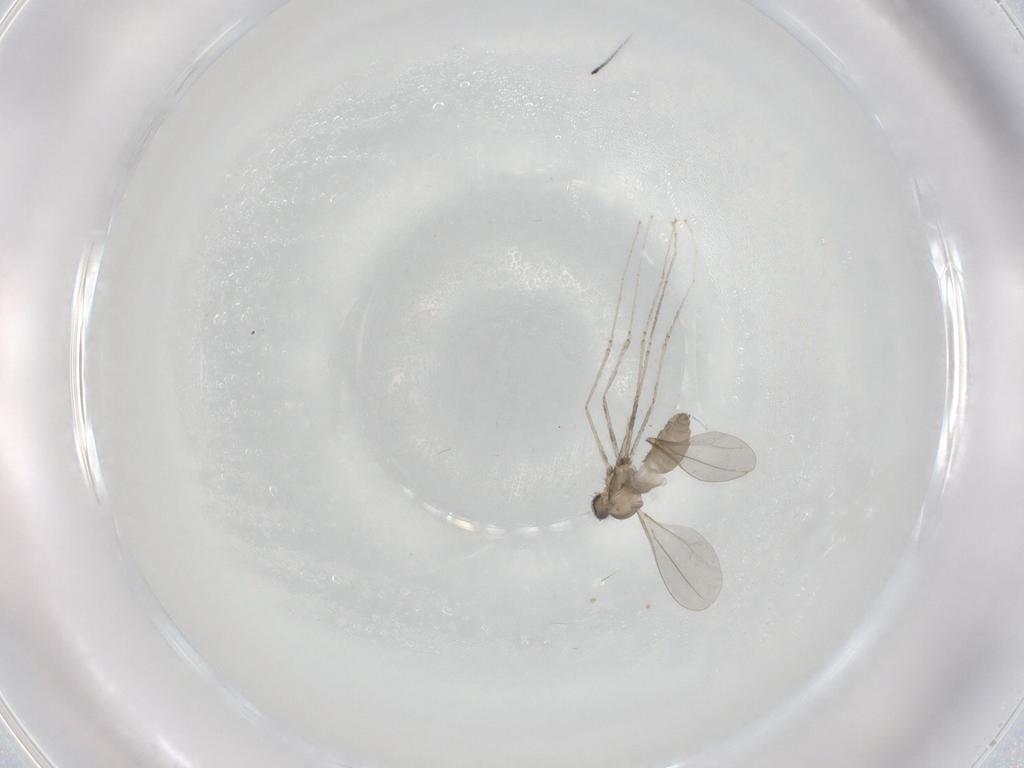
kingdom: Animalia
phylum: Arthropoda
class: Insecta
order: Diptera
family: Cecidomyiidae
